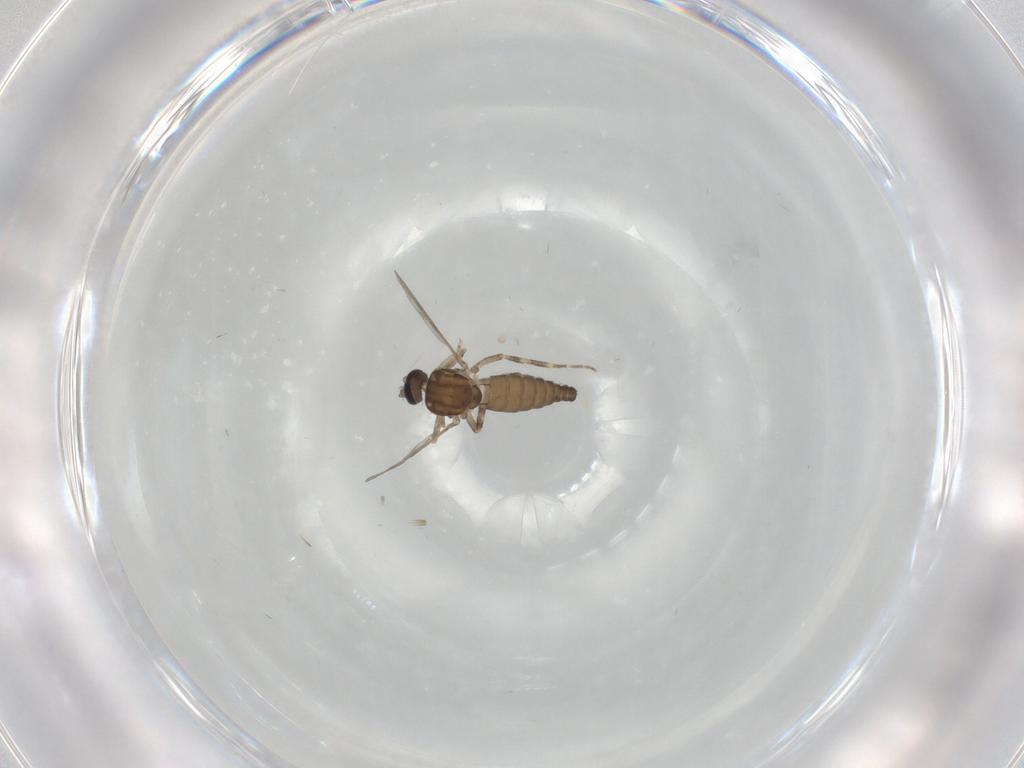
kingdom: Animalia
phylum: Arthropoda
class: Insecta
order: Diptera
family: Ceratopogonidae
